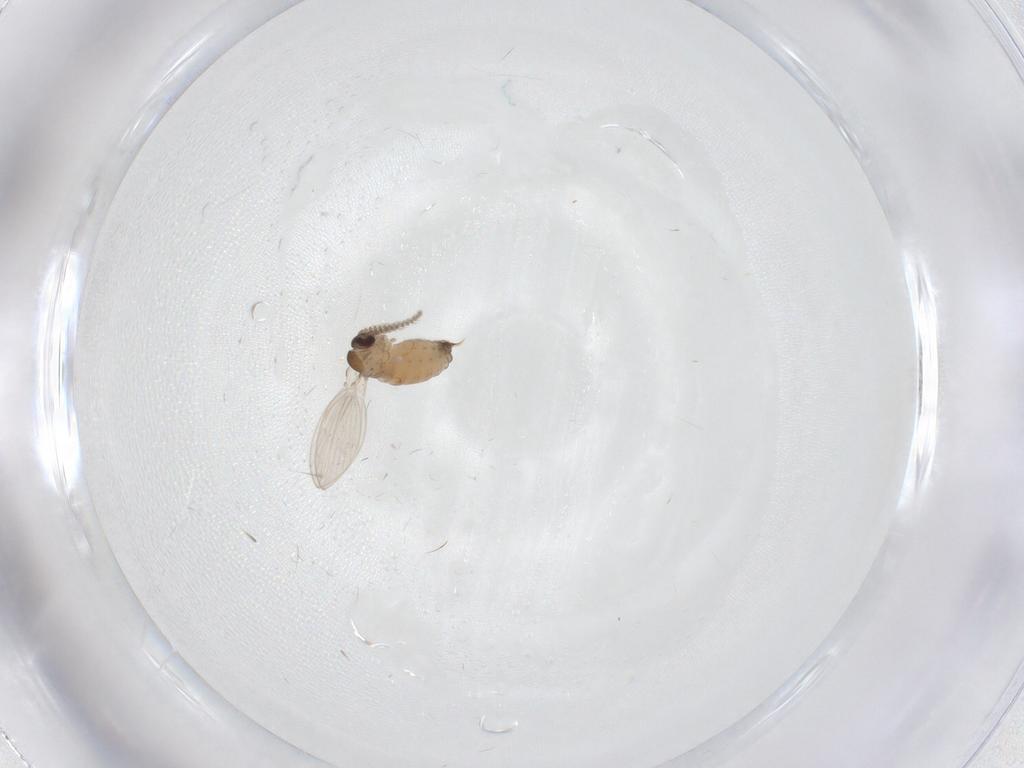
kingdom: Animalia
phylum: Arthropoda
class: Insecta
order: Diptera
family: Psychodidae
